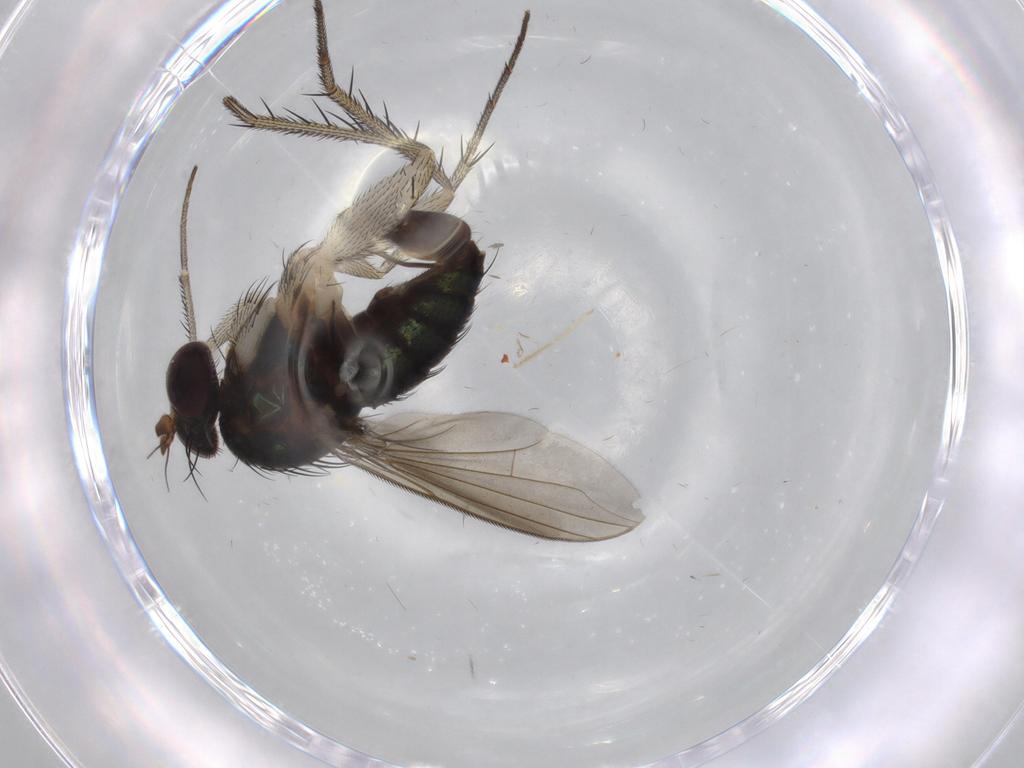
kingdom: Animalia
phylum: Arthropoda
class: Insecta
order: Diptera
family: Dolichopodidae
